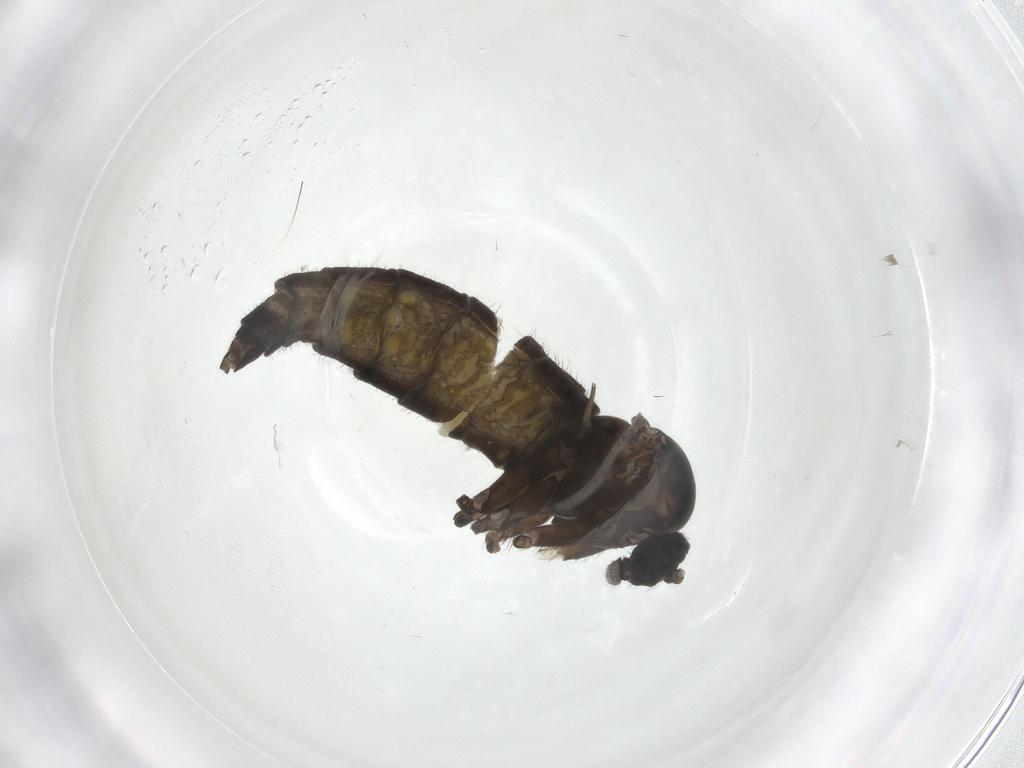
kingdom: Animalia
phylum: Arthropoda
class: Insecta
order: Diptera
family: Sciaridae
